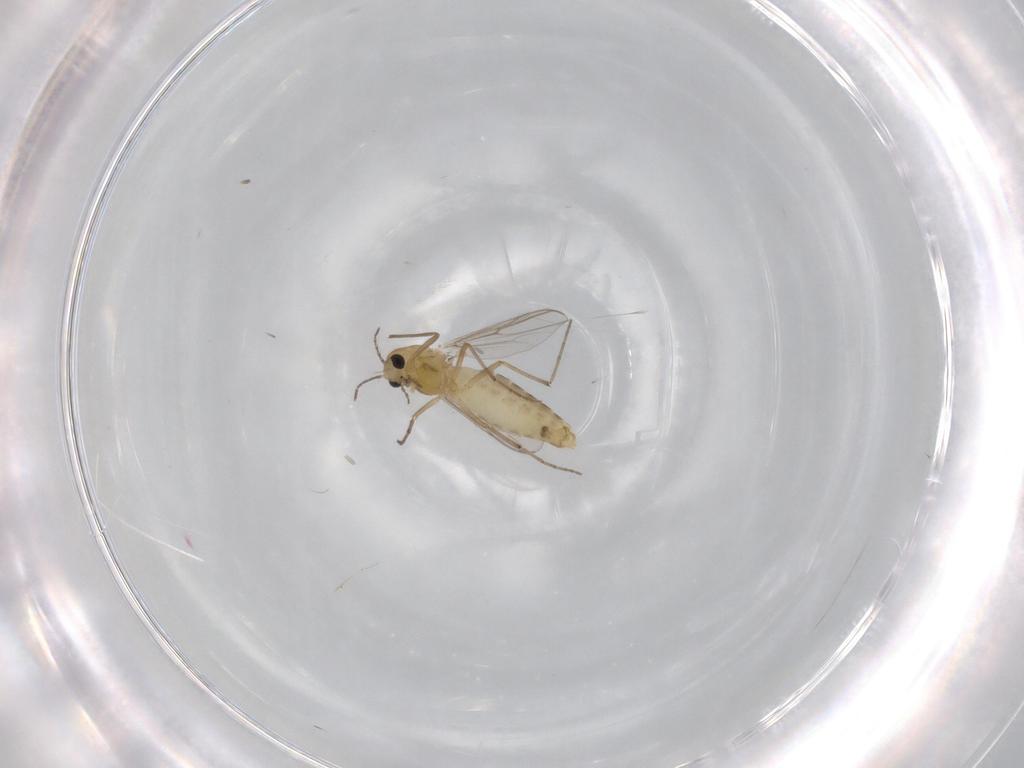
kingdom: Animalia
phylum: Arthropoda
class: Insecta
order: Diptera
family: Chironomidae
